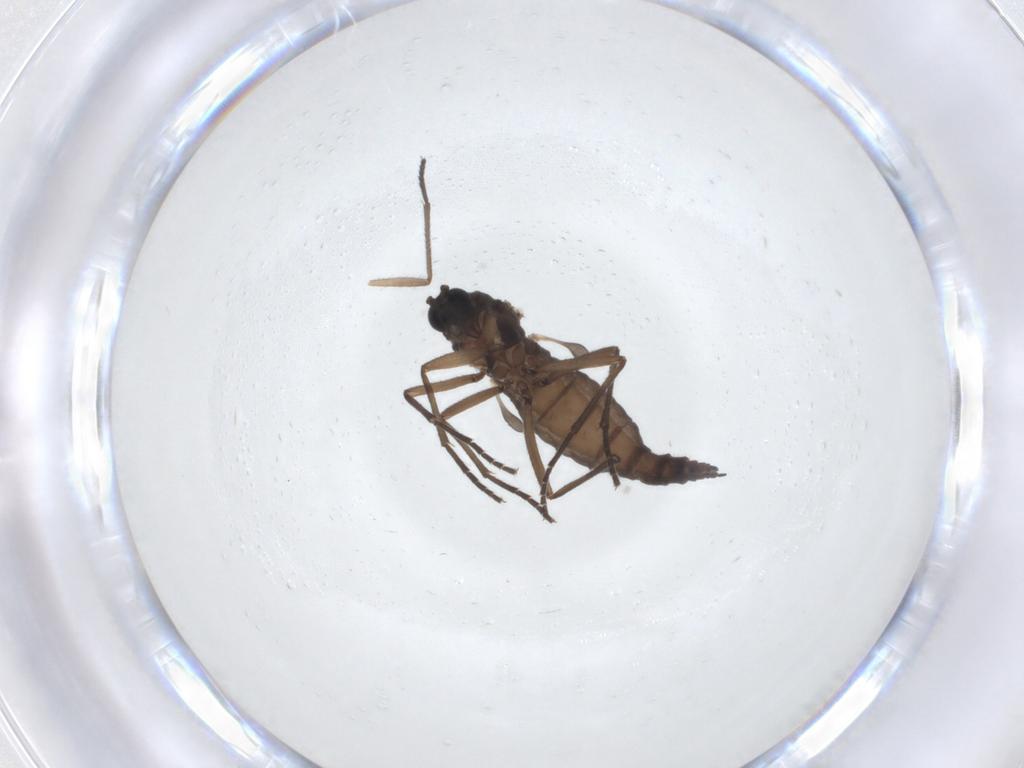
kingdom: Animalia
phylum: Arthropoda
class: Insecta
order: Diptera
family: Sciaridae
